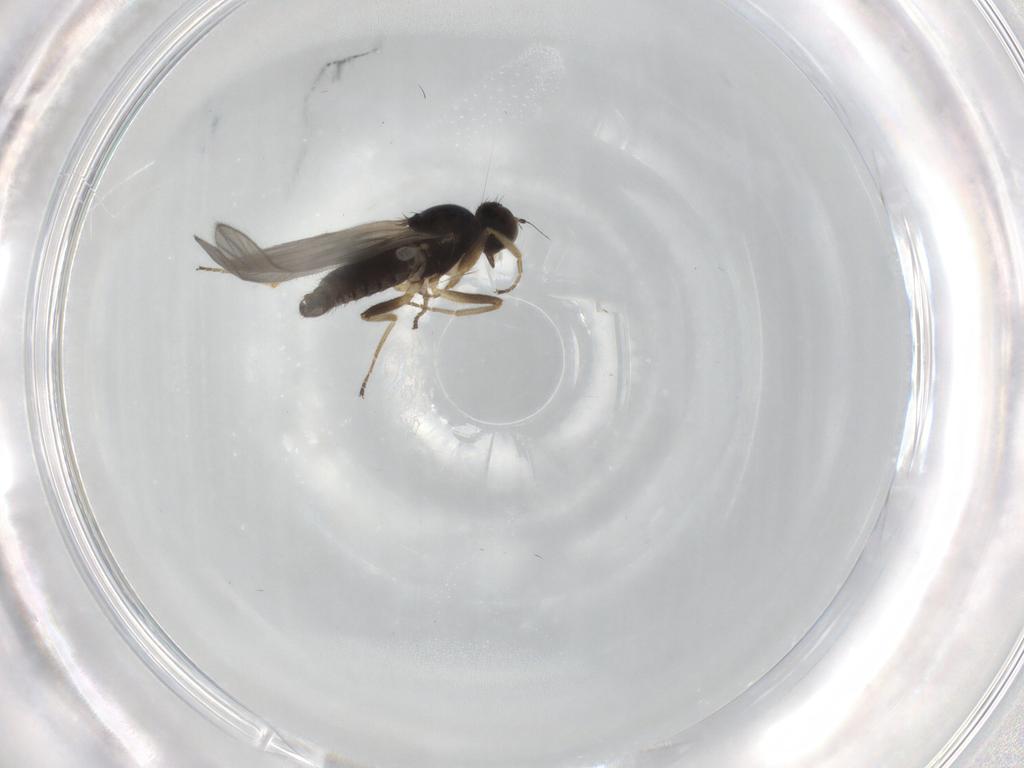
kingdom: Animalia
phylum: Arthropoda
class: Insecta
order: Diptera
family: Hybotidae
